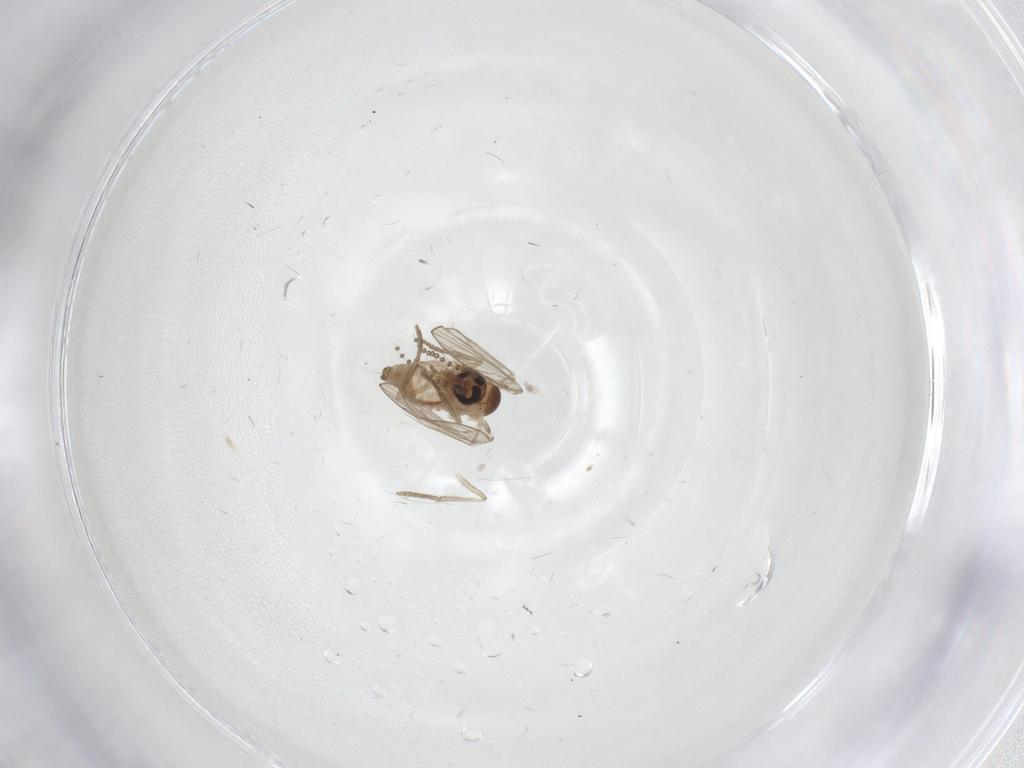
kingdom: Animalia
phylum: Arthropoda
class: Insecta
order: Diptera
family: Psychodidae
